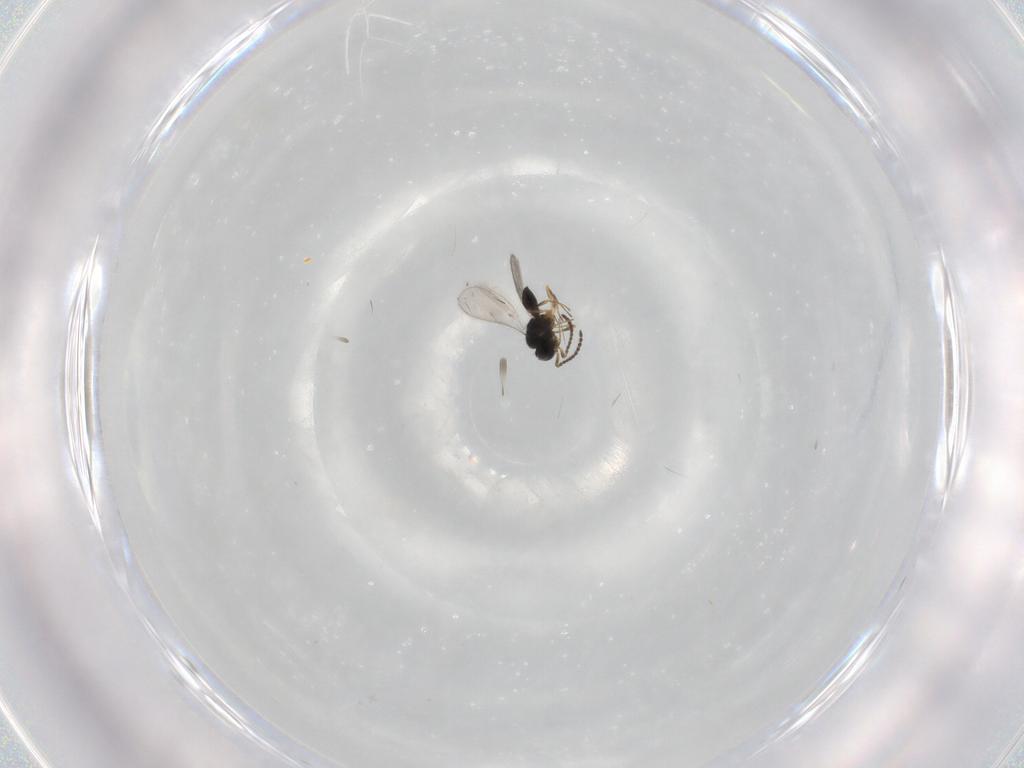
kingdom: Animalia
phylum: Arthropoda
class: Insecta
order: Hymenoptera
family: Scelionidae
